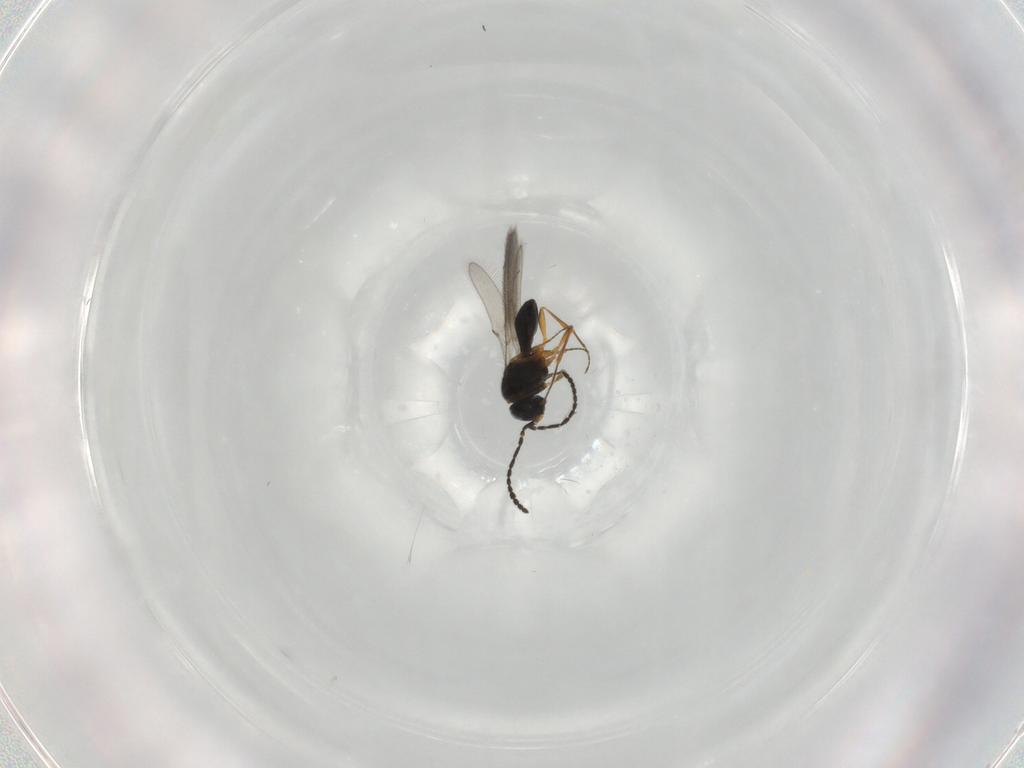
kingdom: Animalia
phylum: Arthropoda
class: Insecta
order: Hymenoptera
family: Scelionidae
